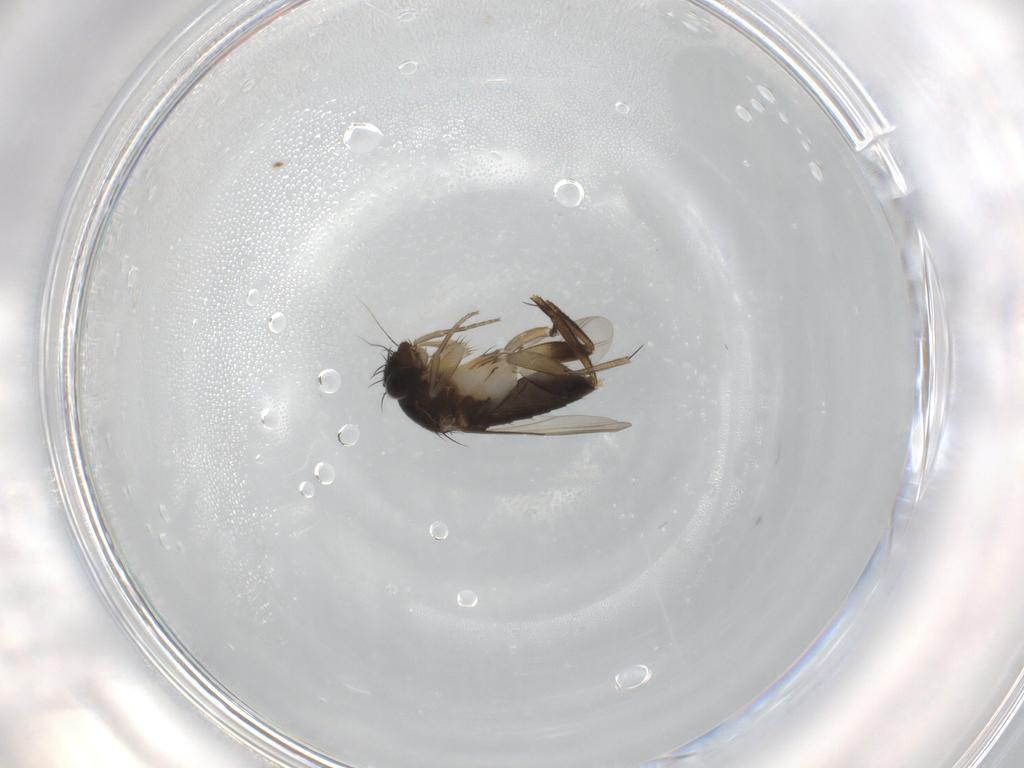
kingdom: Animalia
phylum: Arthropoda
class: Insecta
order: Diptera
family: Phoridae
